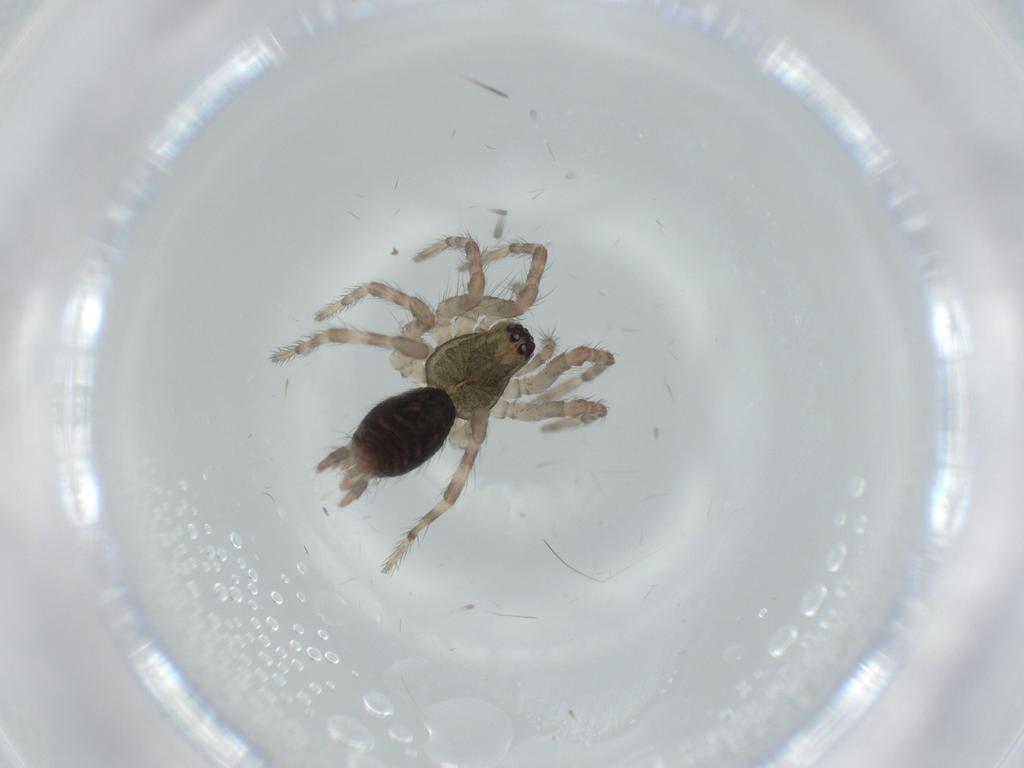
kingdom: Animalia
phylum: Arthropoda
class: Arachnida
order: Araneae
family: Agelenidae
